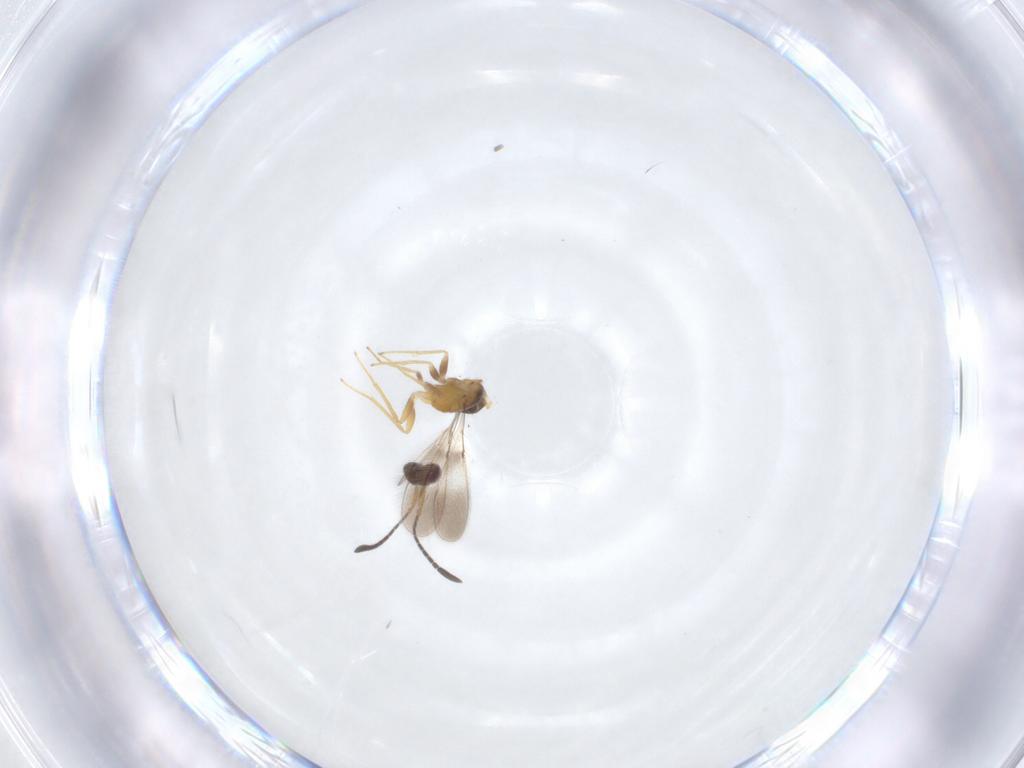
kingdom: Animalia
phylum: Arthropoda
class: Insecta
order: Hymenoptera
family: Mymaridae
